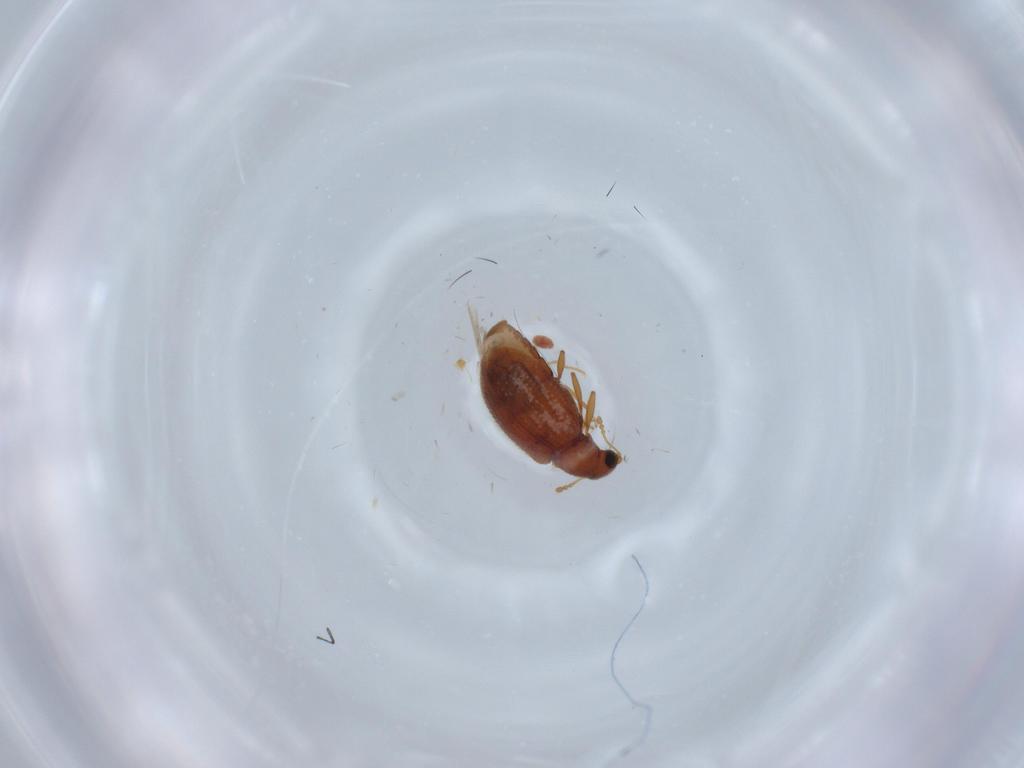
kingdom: Animalia
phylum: Arthropoda
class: Insecta
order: Coleoptera
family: Latridiidae
